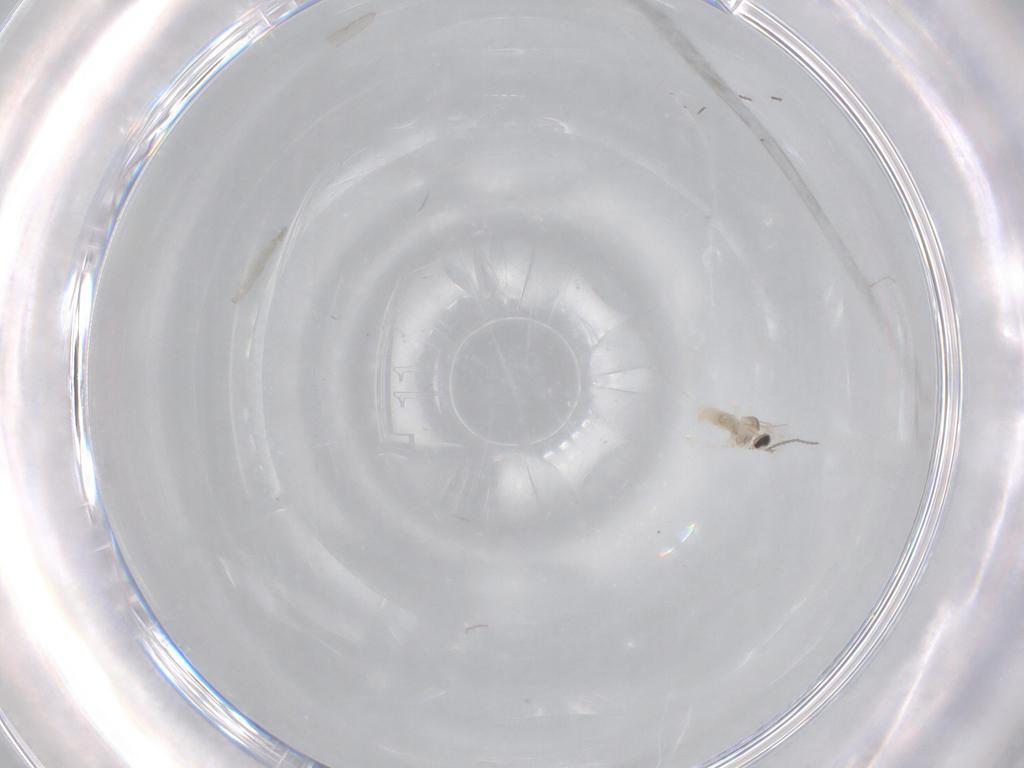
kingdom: Animalia
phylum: Arthropoda
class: Insecta
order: Diptera
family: Cecidomyiidae
